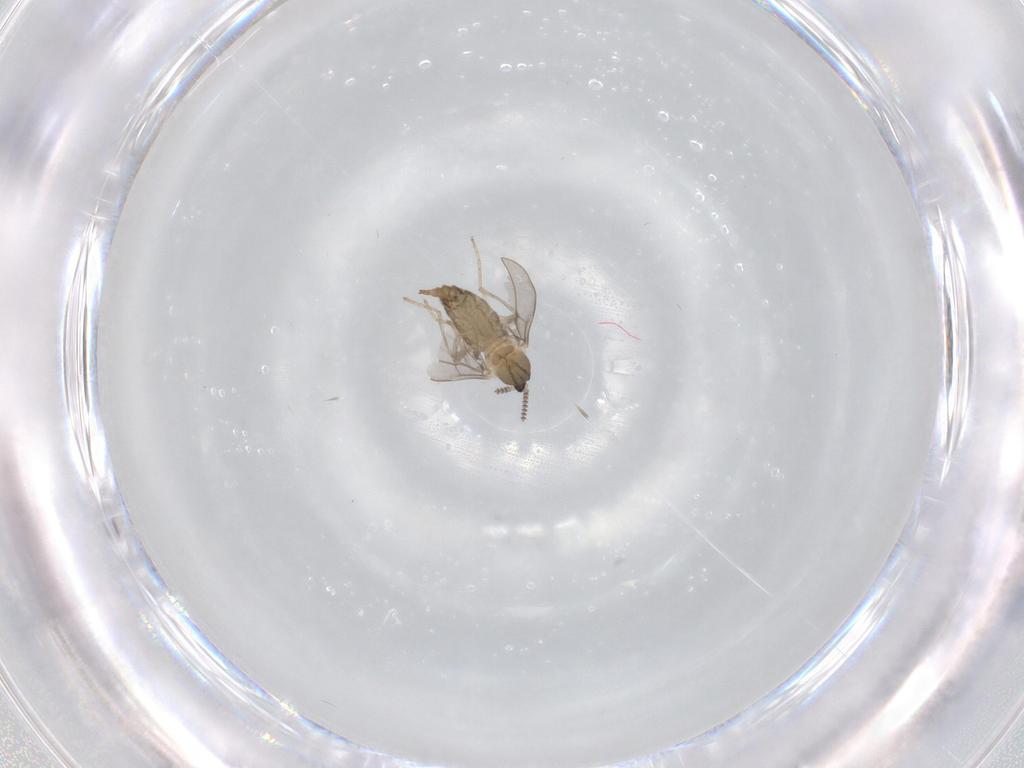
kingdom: Animalia
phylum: Arthropoda
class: Insecta
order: Diptera
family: Cecidomyiidae
